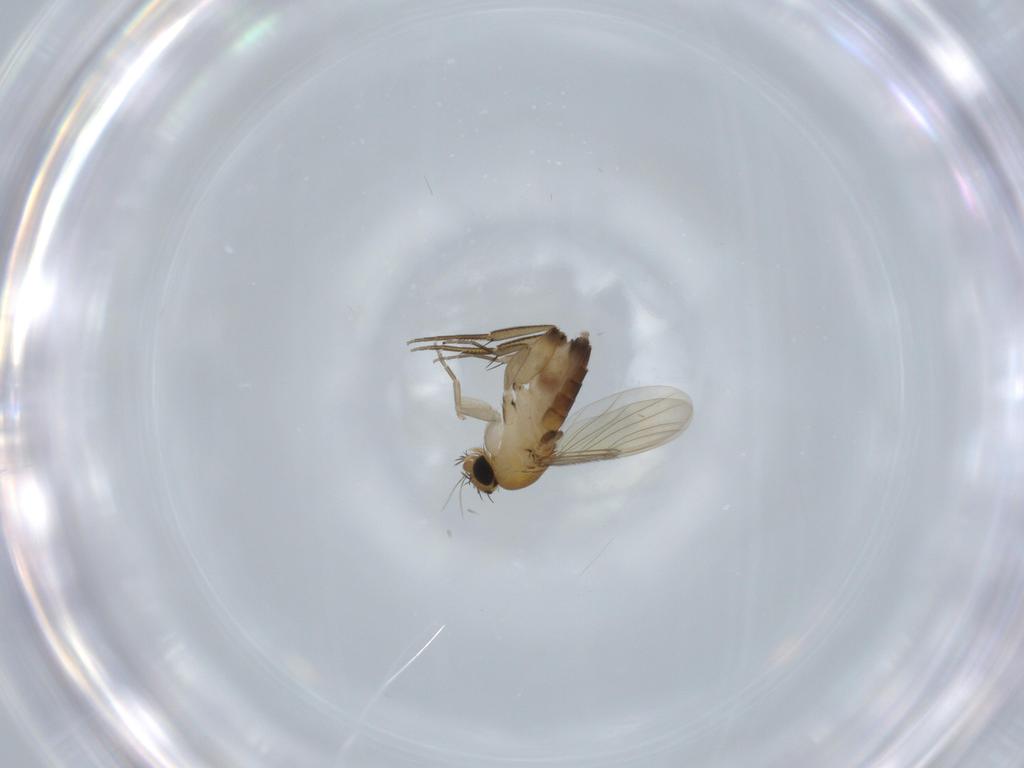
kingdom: Animalia
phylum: Arthropoda
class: Insecta
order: Diptera
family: Phoridae
